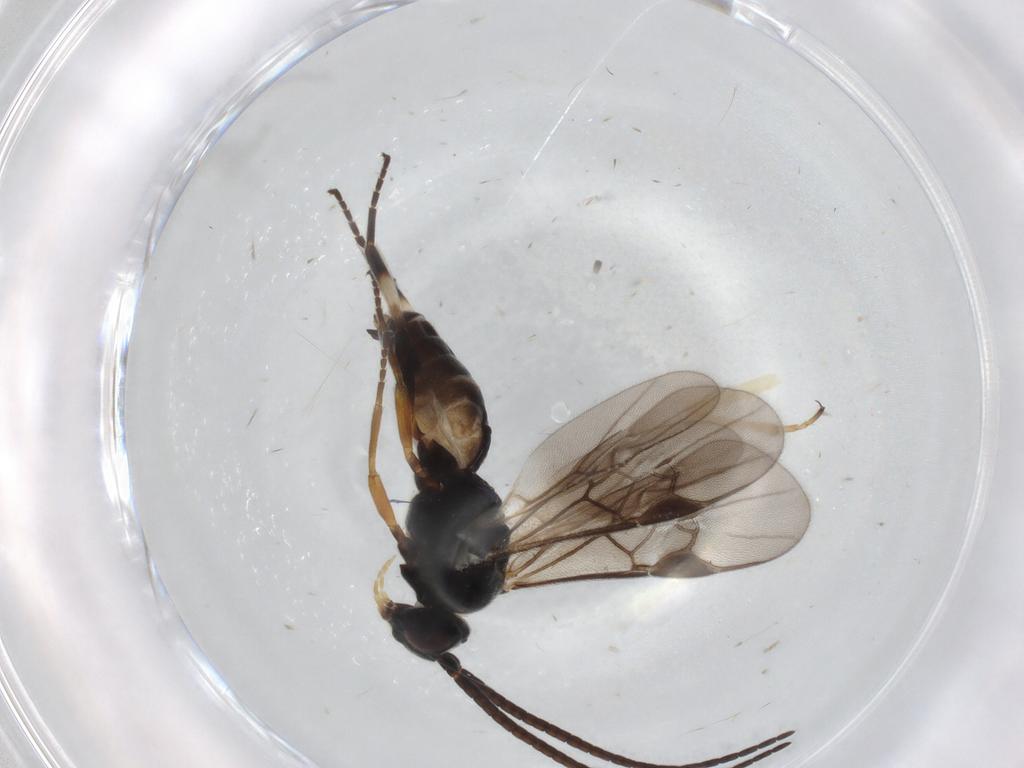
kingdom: Animalia
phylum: Arthropoda
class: Insecta
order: Hymenoptera
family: Braconidae
